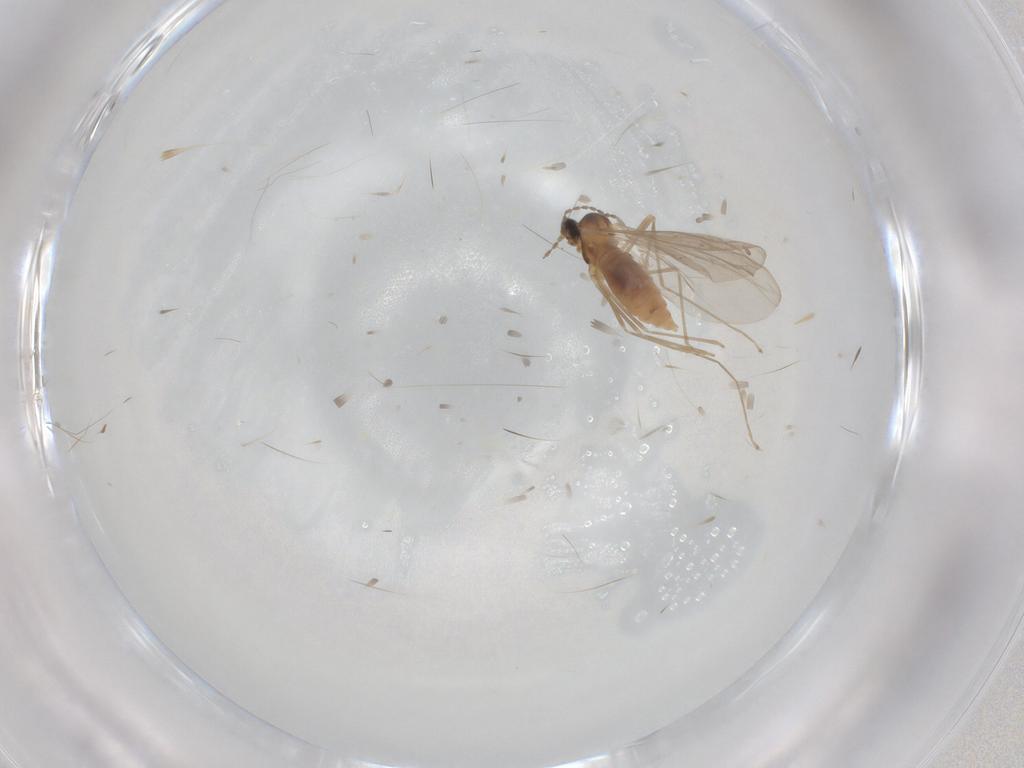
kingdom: Animalia
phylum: Arthropoda
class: Insecta
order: Diptera
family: Cecidomyiidae
